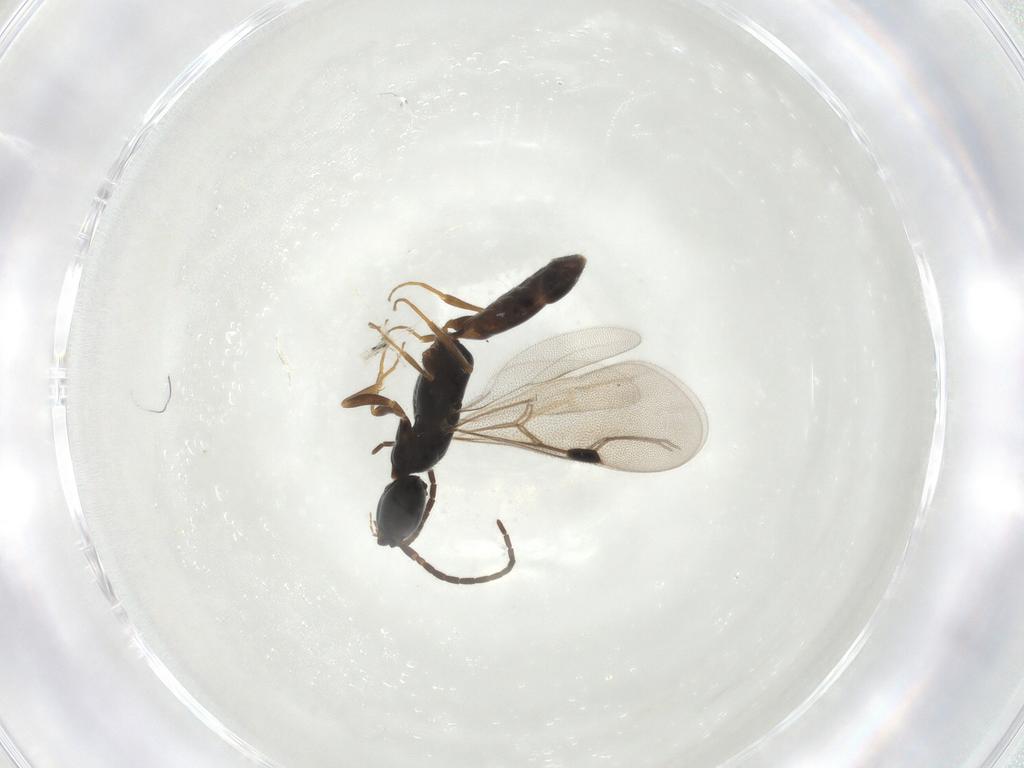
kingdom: Animalia
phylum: Arthropoda
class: Insecta
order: Hymenoptera
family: Bethylidae
